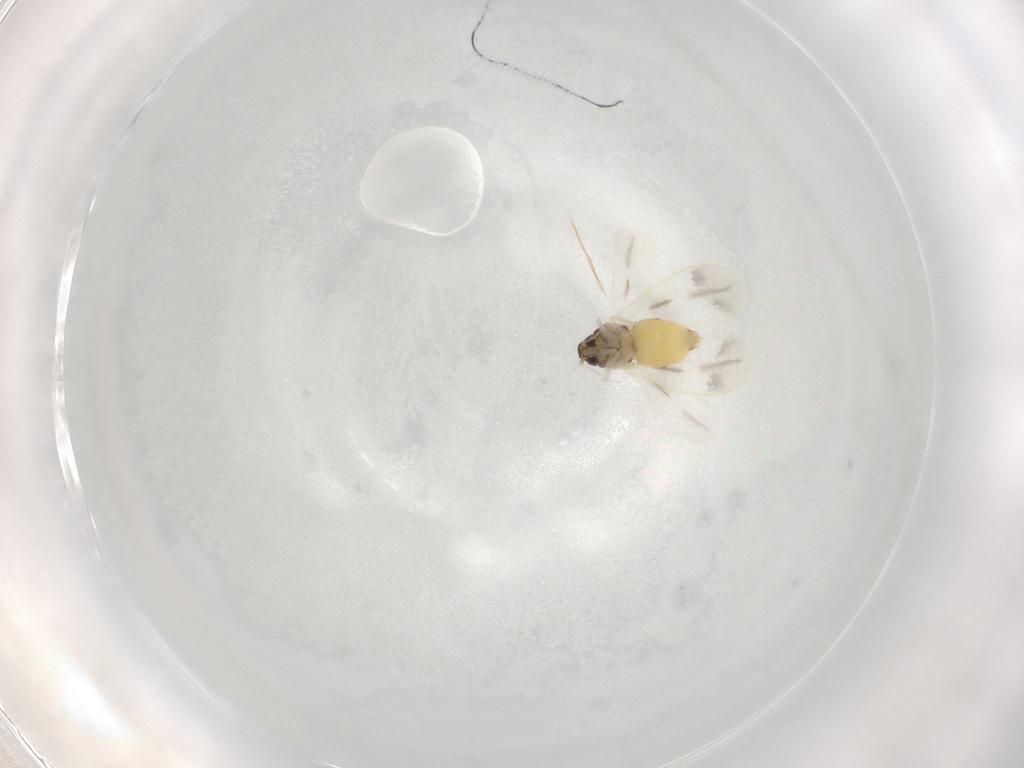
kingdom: Animalia
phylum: Arthropoda
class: Insecta
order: Hemiptera
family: Aleyrodidae
